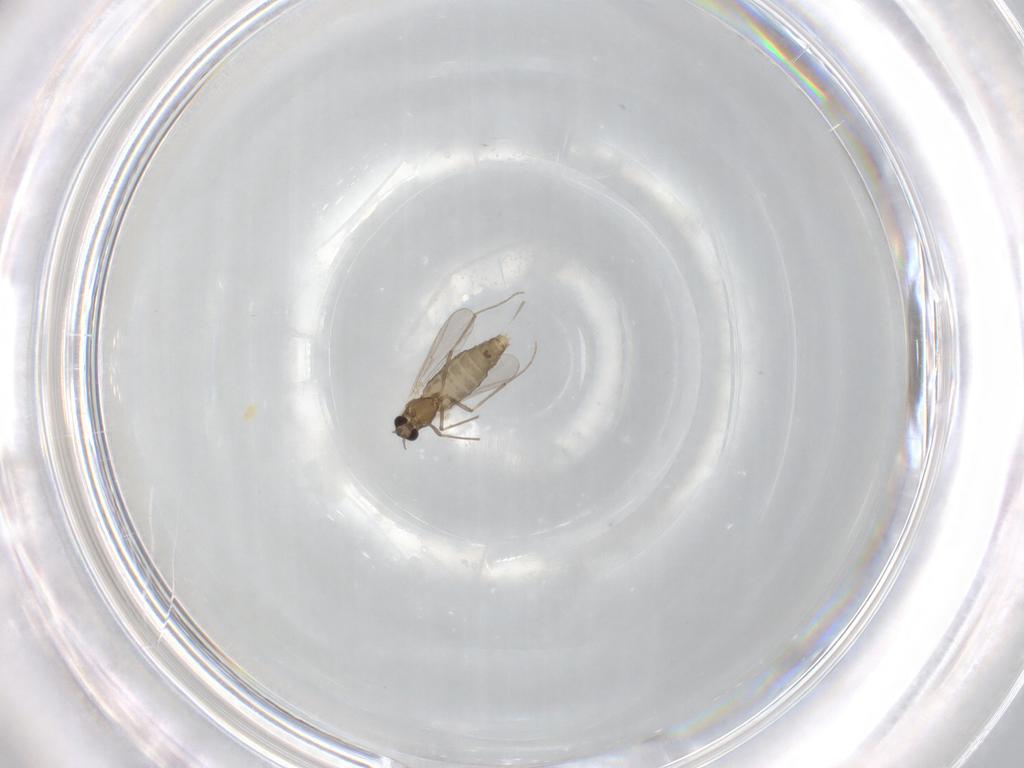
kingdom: Animalia
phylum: Arthropoda
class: Insecta
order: Diptera
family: Chironomidae
